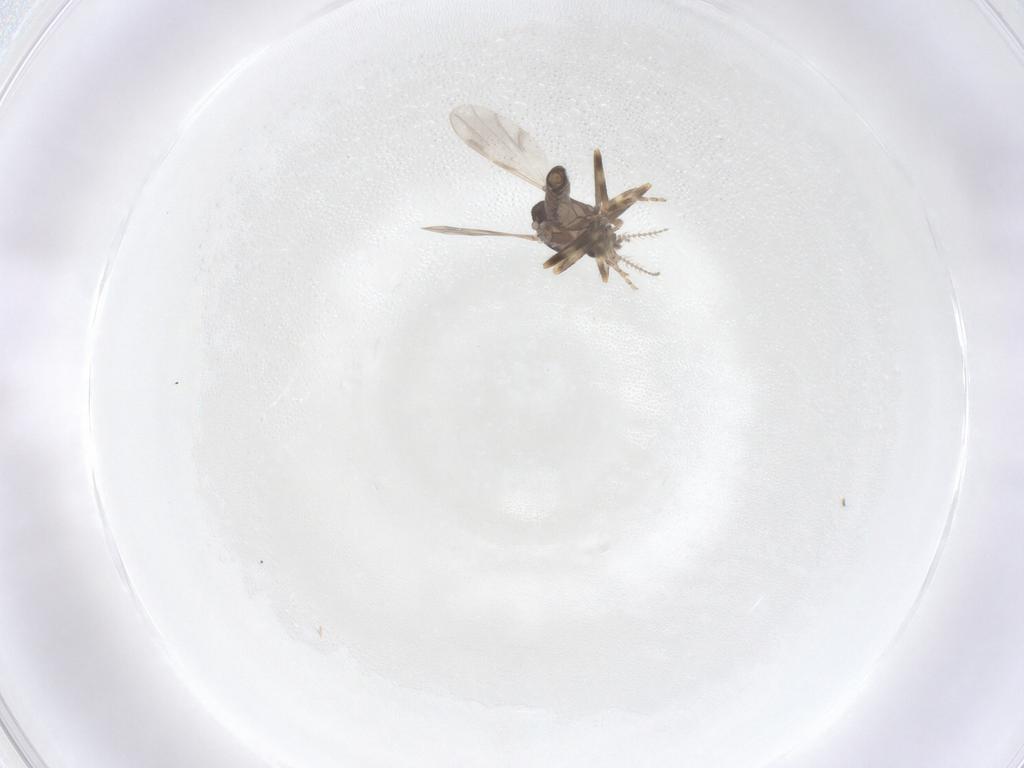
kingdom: Animalia
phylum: Arthropoda
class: Insecta
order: Diptera
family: Ceratopogonidae
